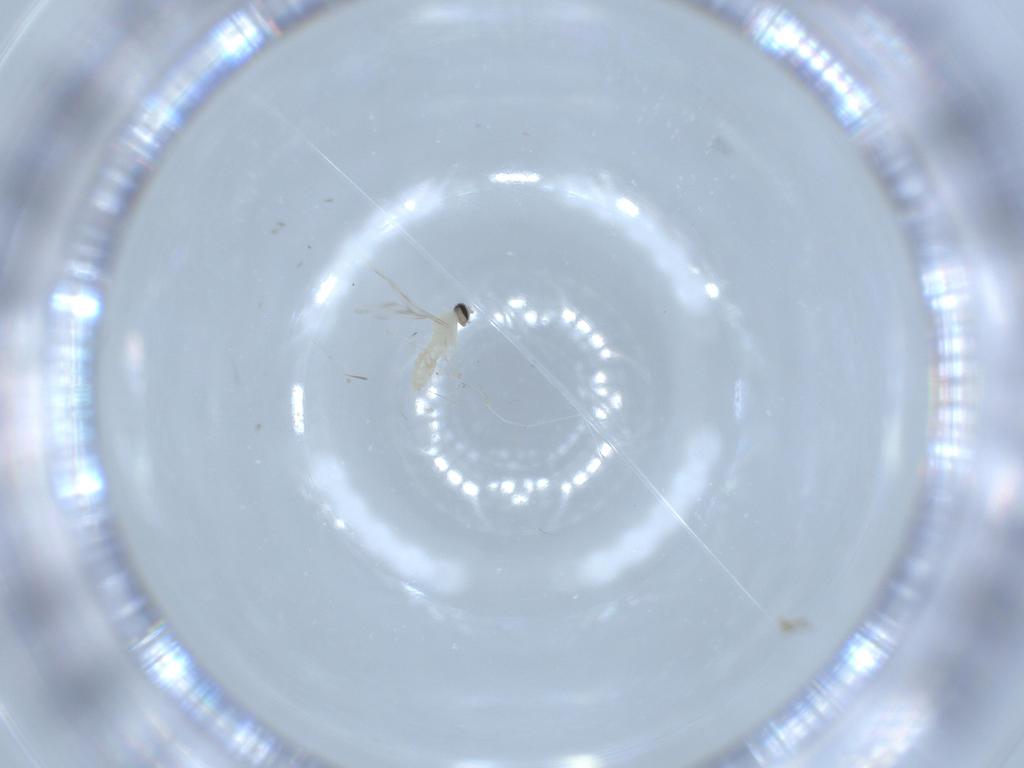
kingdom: Animalia
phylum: Arthropoda
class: Insecta
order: Diptera
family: Cecidomyiidae
